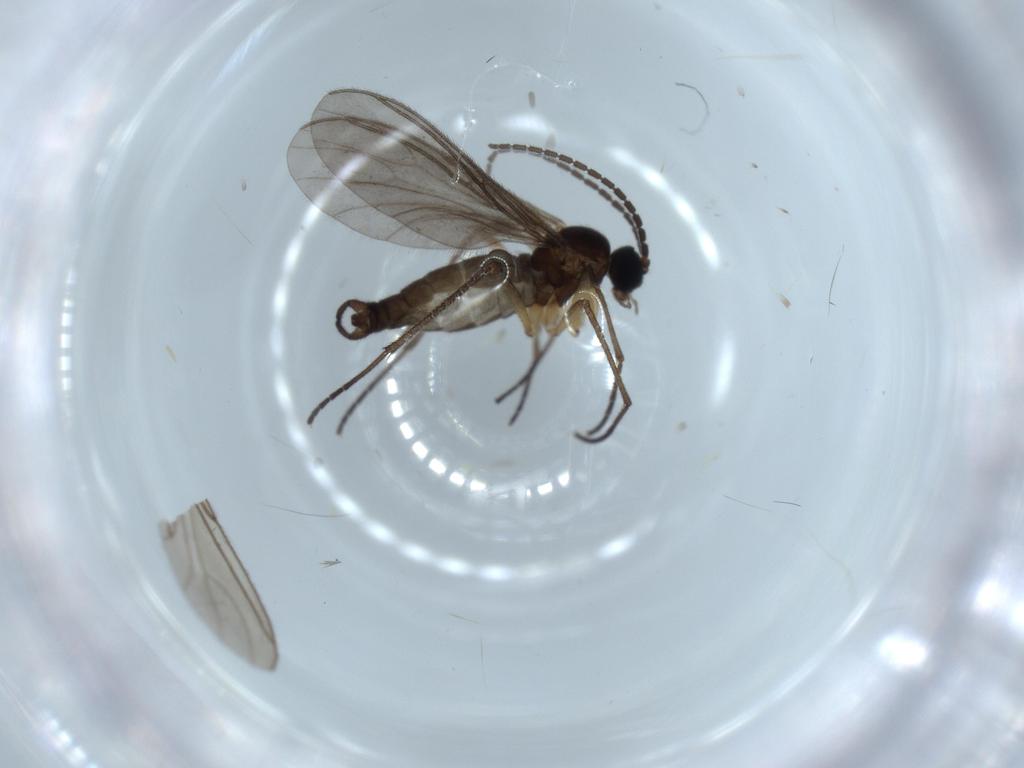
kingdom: Animalia
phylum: Arthropoda
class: Insecta
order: Diptera
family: Sciaridae
